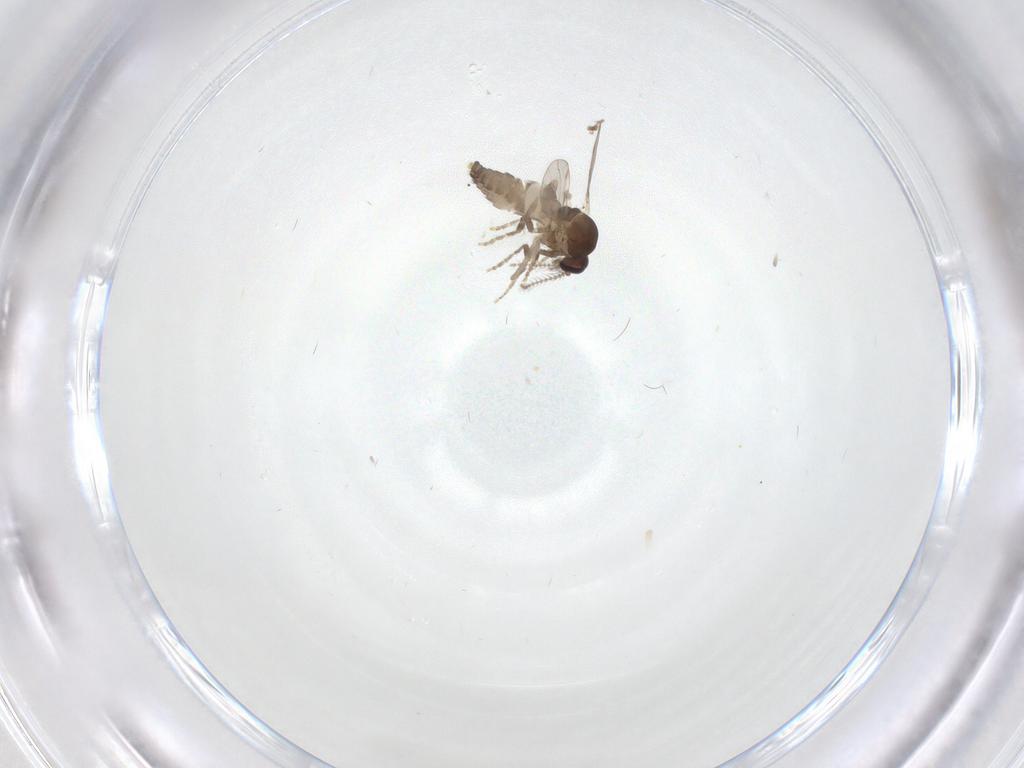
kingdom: Animalia
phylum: Arthropoda
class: Insecta
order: Diptera
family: Ceratopogonidae
